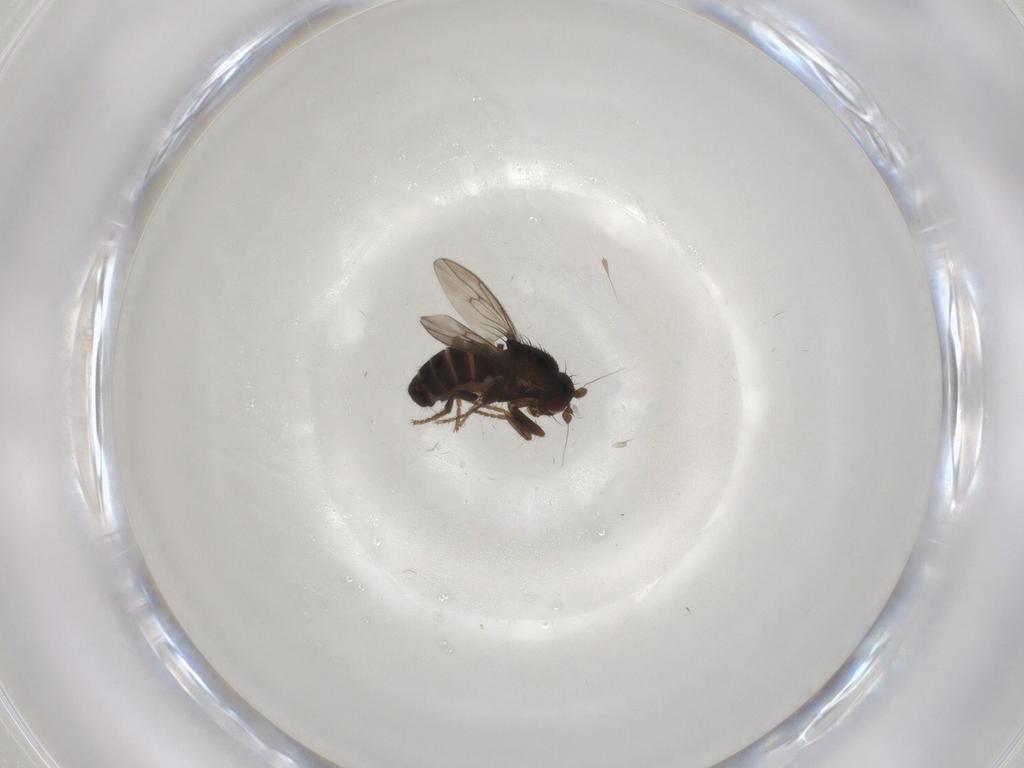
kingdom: Animalia
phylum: Arthropoda
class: Insecta
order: Diptera
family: Sphaeroceridae
